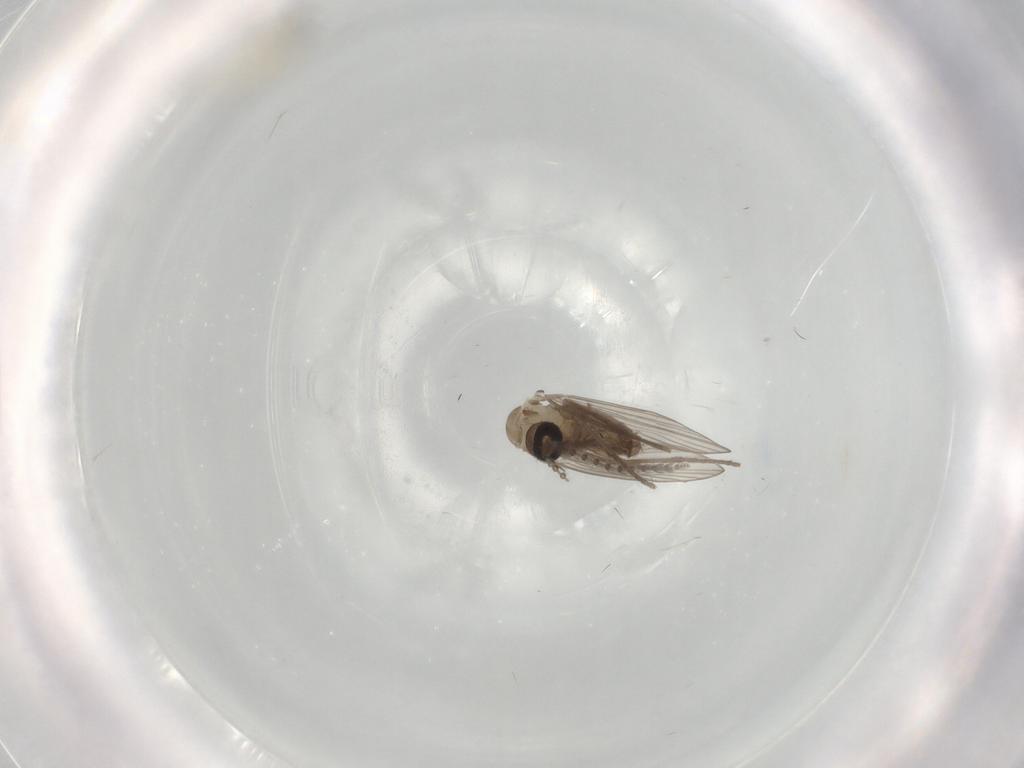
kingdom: Animalia
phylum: Arthropoda
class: Insecta
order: Diptera
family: Psychodidae
